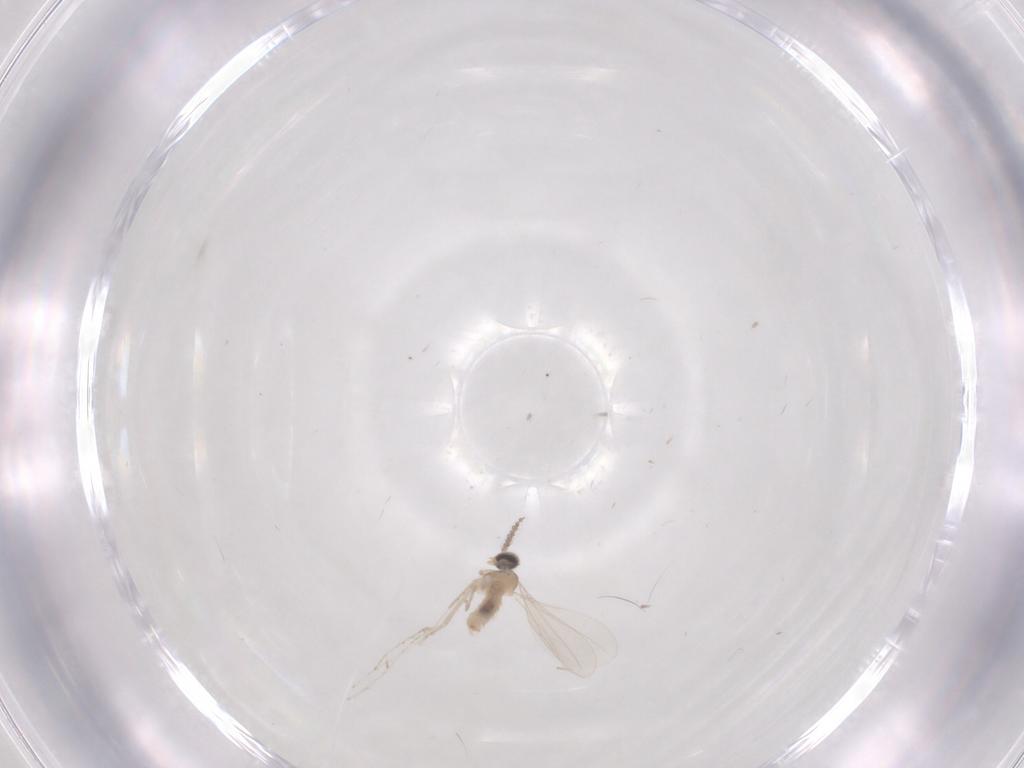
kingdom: Animalia
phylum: Arthropoda
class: Insecta
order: Diptera
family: Cecidomyiidae
